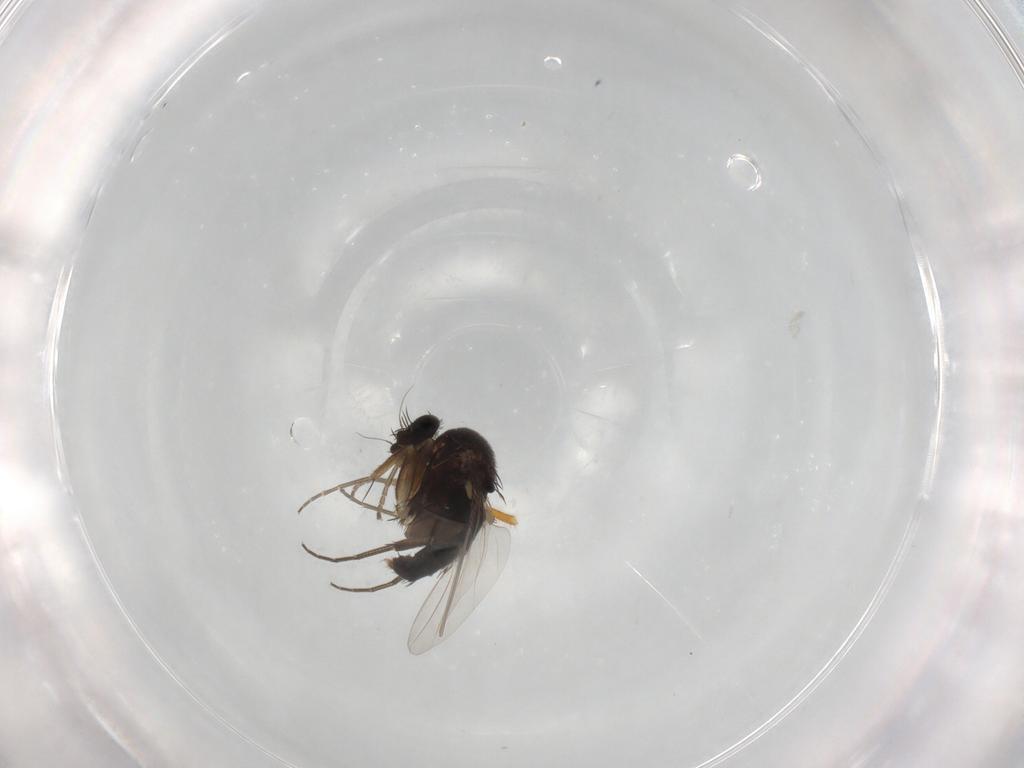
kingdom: Animalia
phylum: Arthropoda
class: Insecta
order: Diptera
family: Phoridae
